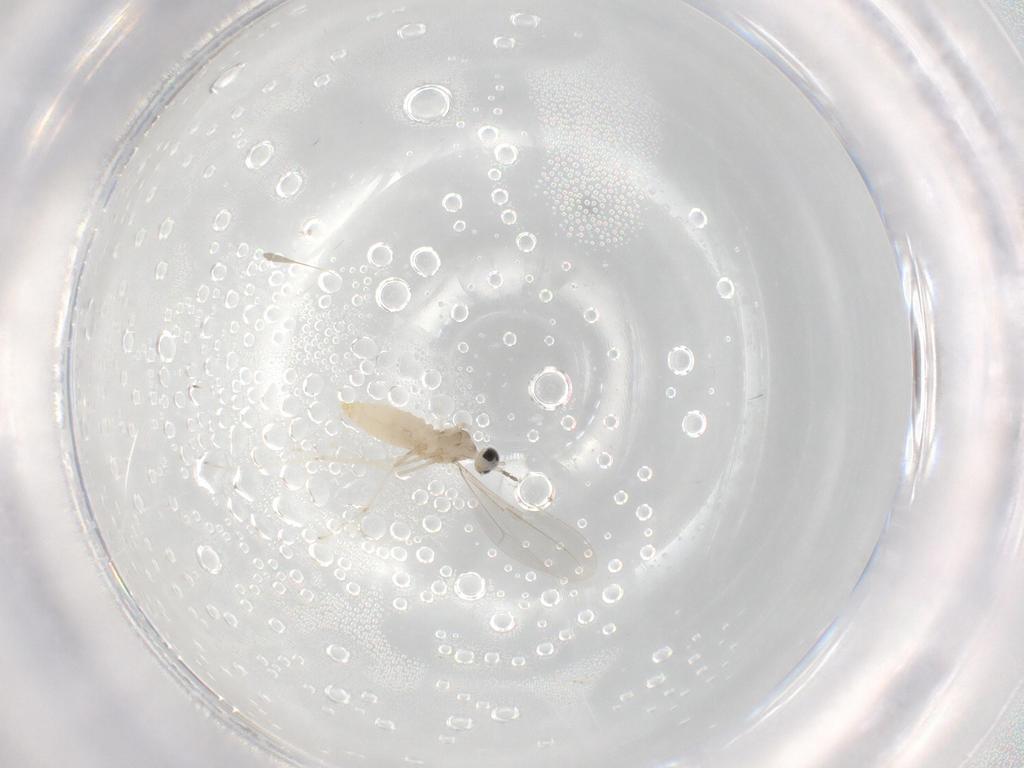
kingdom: Animalia
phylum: Arthropoda
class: Insecta
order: Diptera
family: Cecidomyiidae
